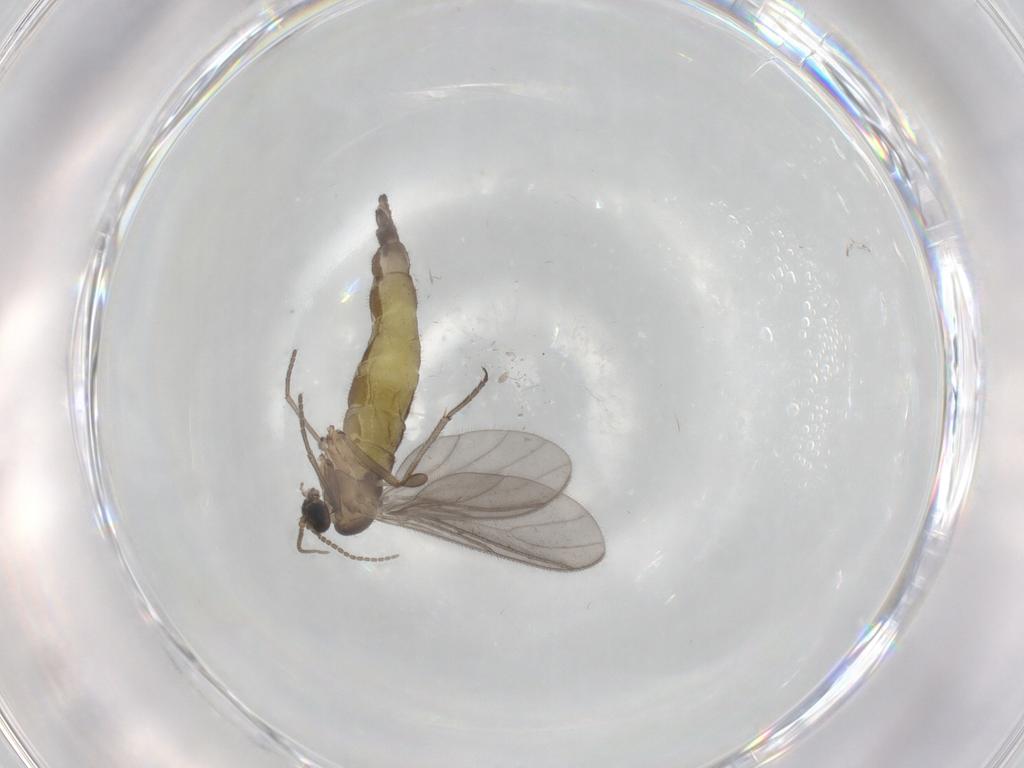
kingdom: Animalia
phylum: Arthropoda
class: Insecta
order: Diptera
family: Sciaridae
